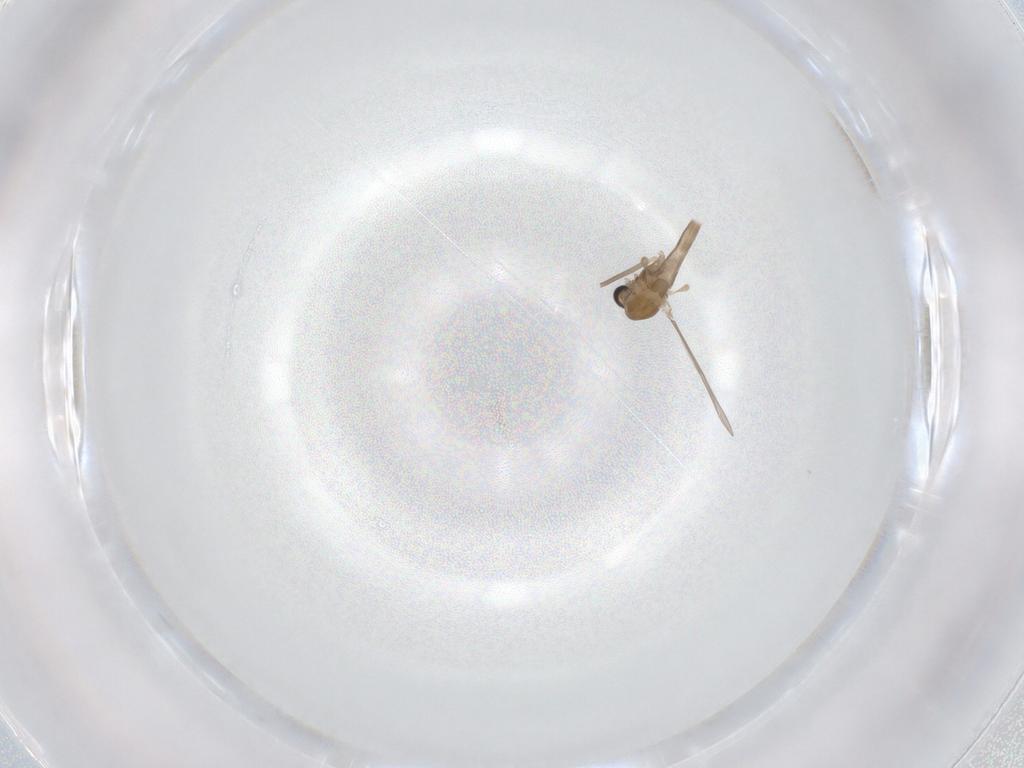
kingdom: Animalia
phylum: Arthropoda
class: Insecta
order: Diptera
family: Chironomidae
